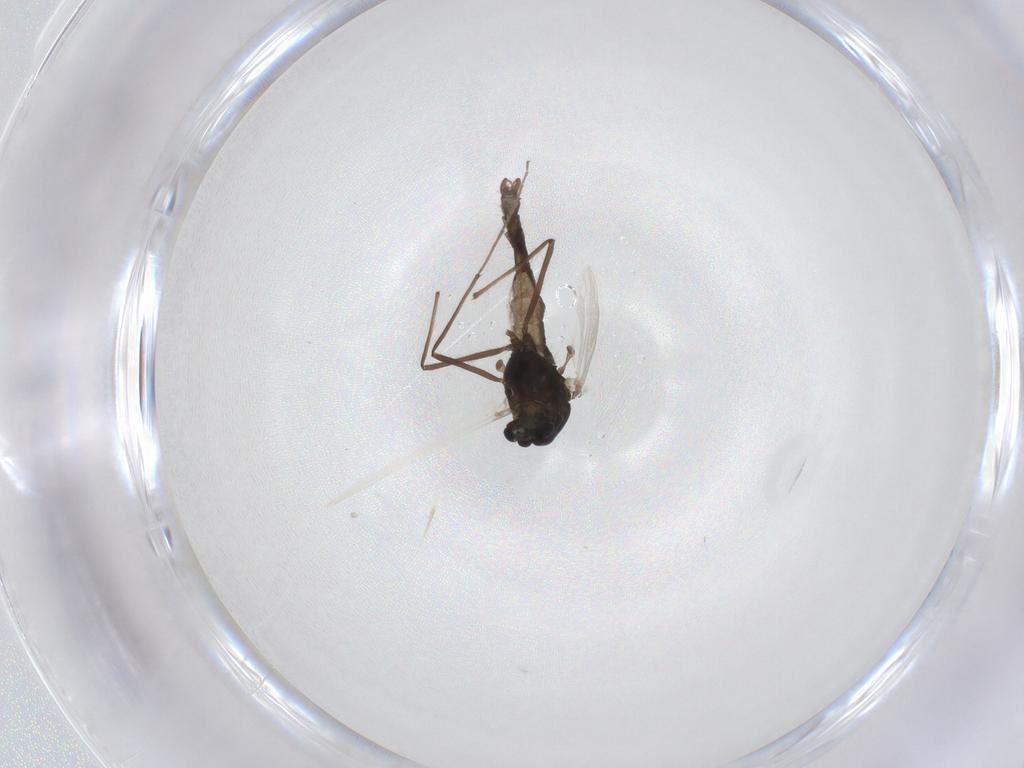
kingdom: Animalia
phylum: Arthropoda
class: Insecta
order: Diptera
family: Chironomidae
